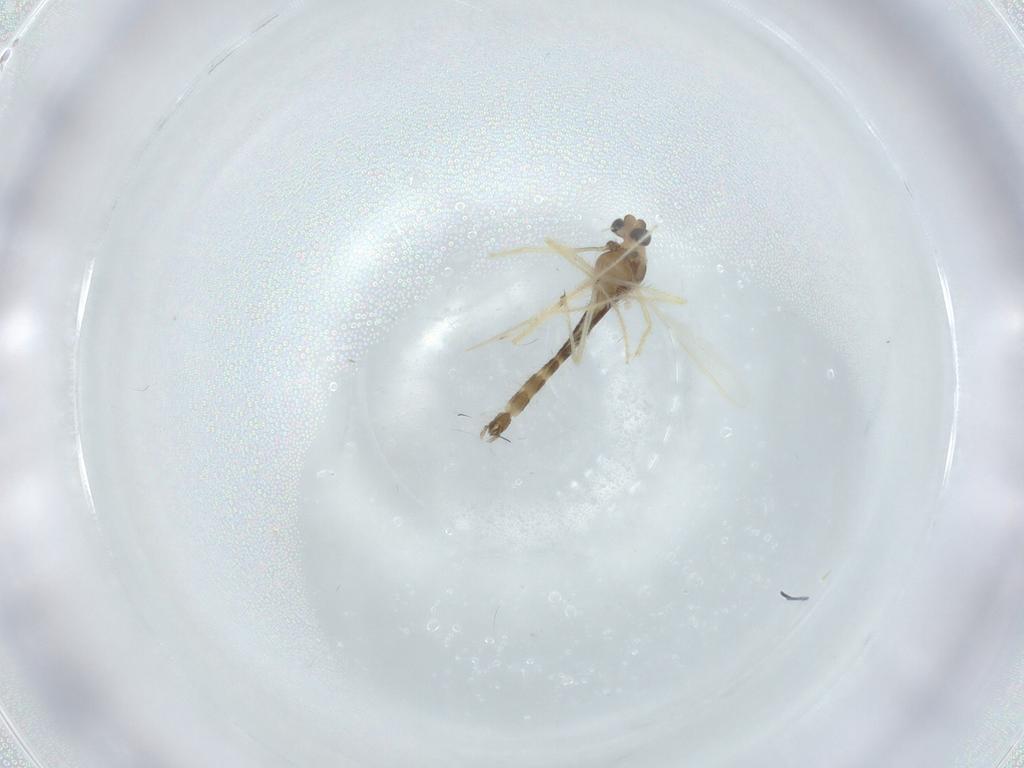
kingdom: Animalia
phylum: Arthropoda
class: Insecta
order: Diptera
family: Chironomidae
